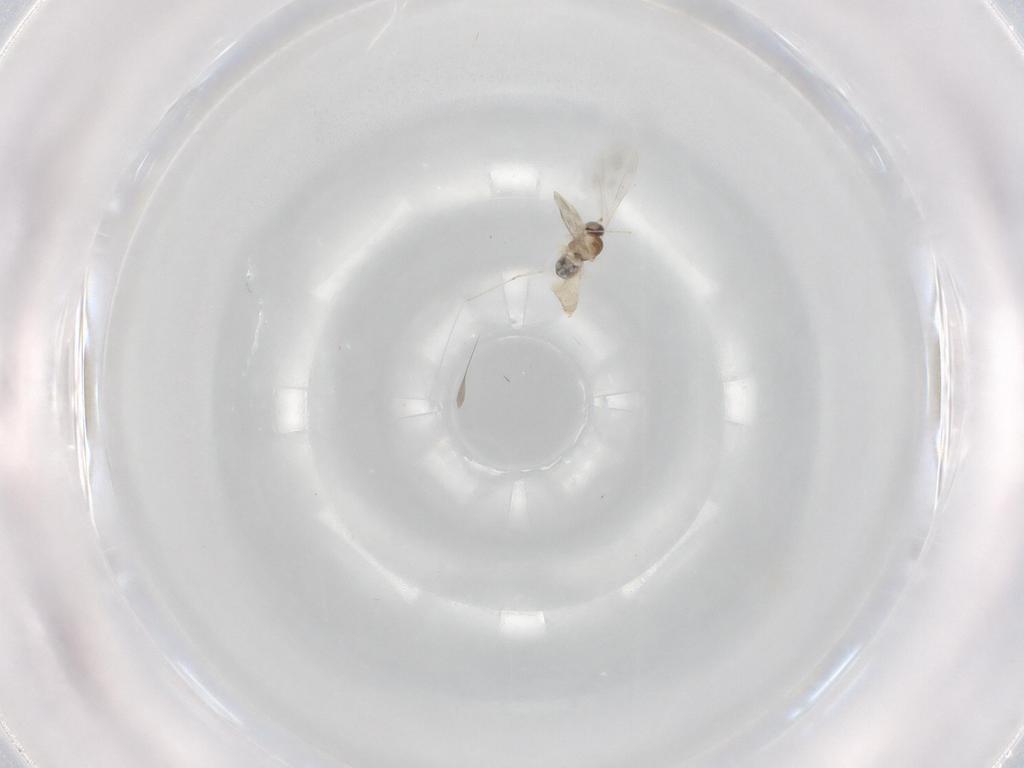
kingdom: Animalia
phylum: Arthropoda
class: Insecta
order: Diptera
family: Cecidomyiidae
